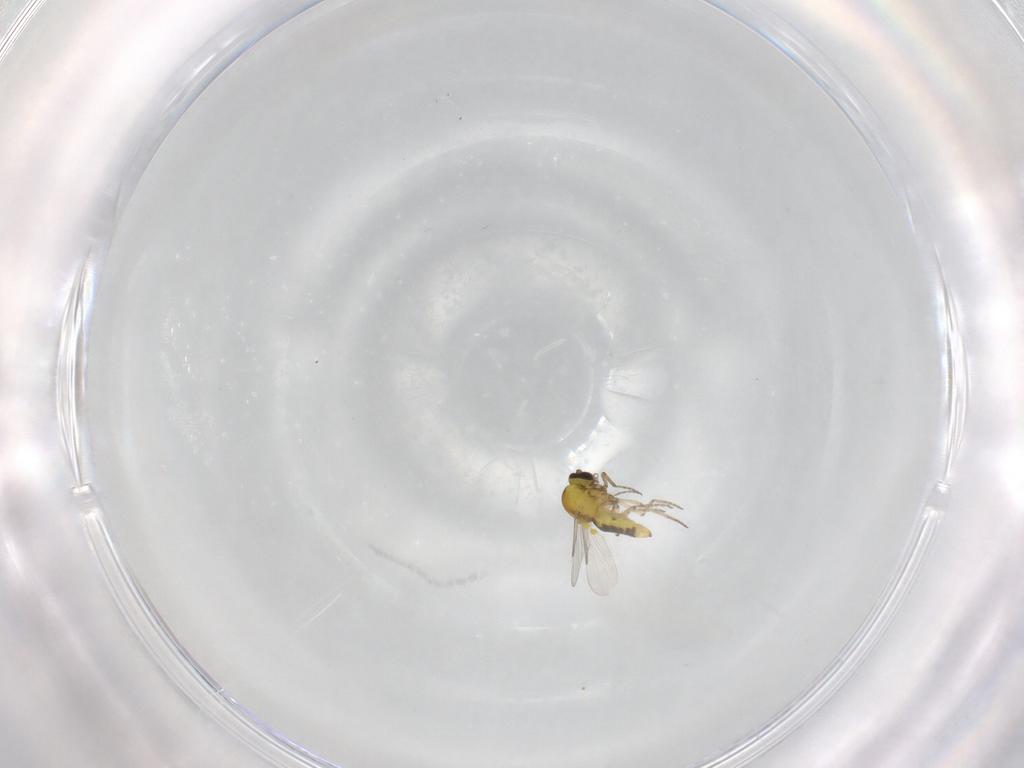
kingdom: Animalia
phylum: Arthropoda
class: Insecta
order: Diptera
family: Ceratopogonidae
